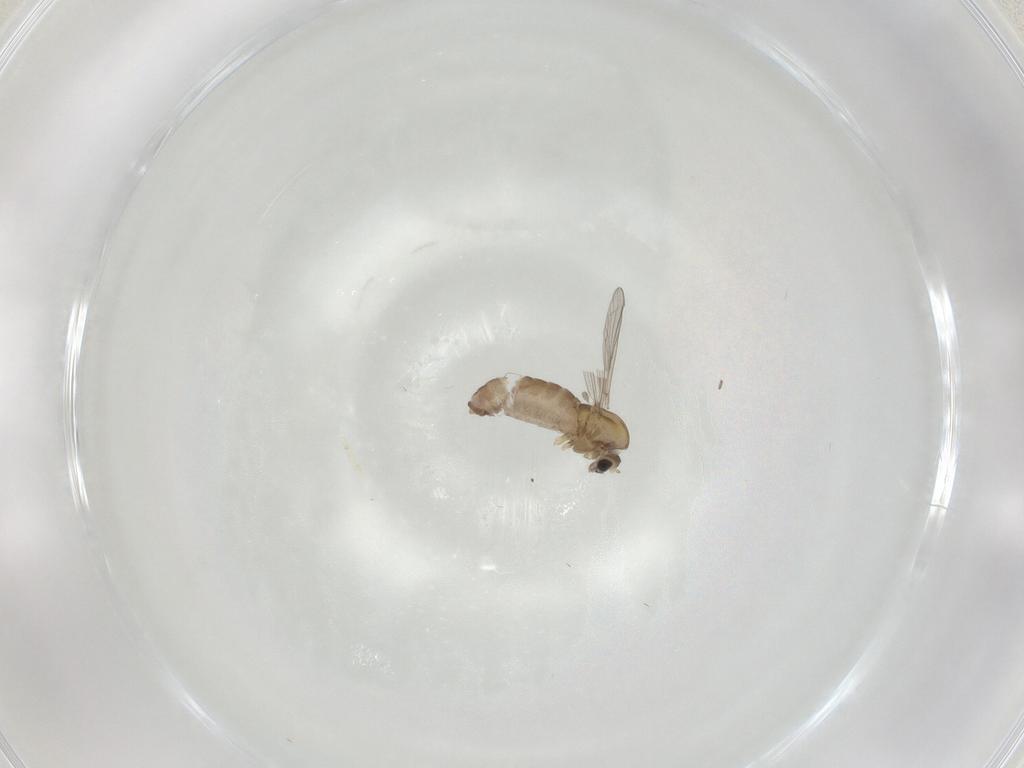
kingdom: Animalia
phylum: Arthropoda
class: Insecta
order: Diptera
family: Chironomidae
